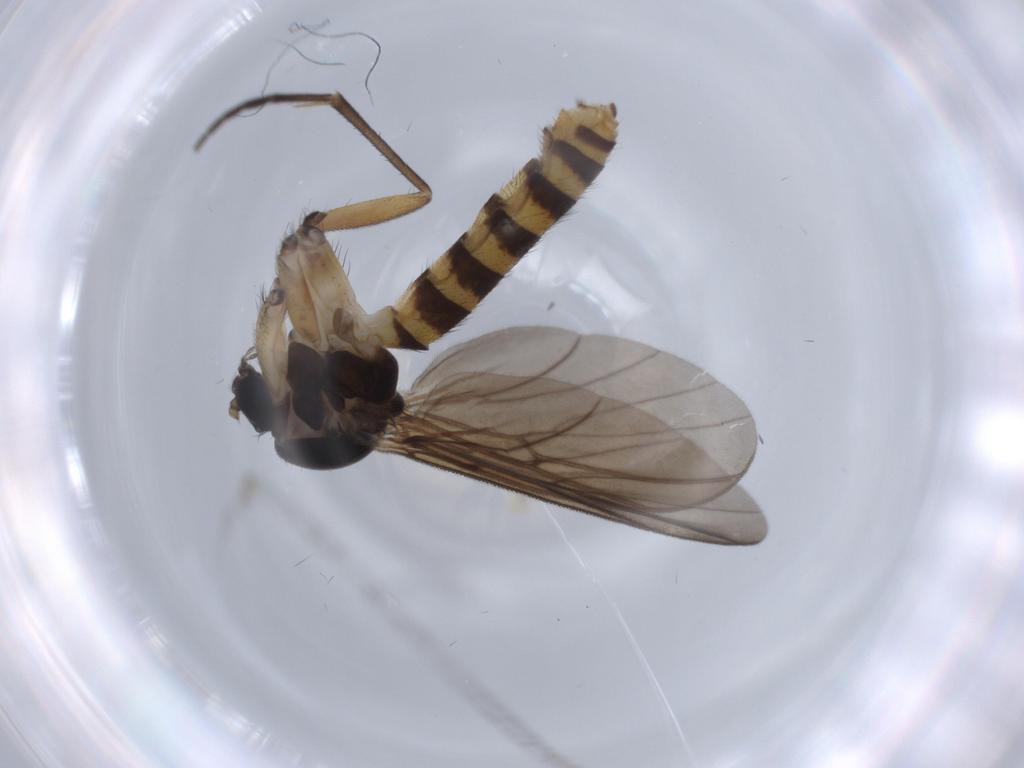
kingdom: Animalia
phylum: Arthropoda
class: Insecta
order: Diptera
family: Mycetophilidae
